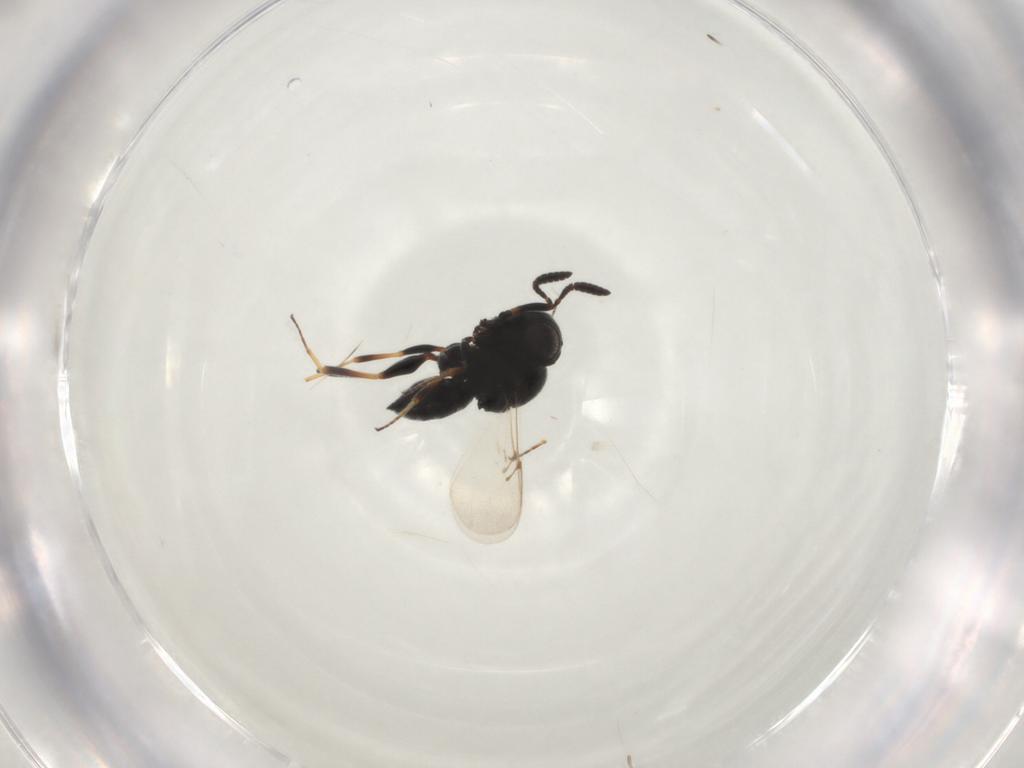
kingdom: Animalia
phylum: Arthropoda
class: Insecta
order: Hymenoptera
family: Scelionidae
